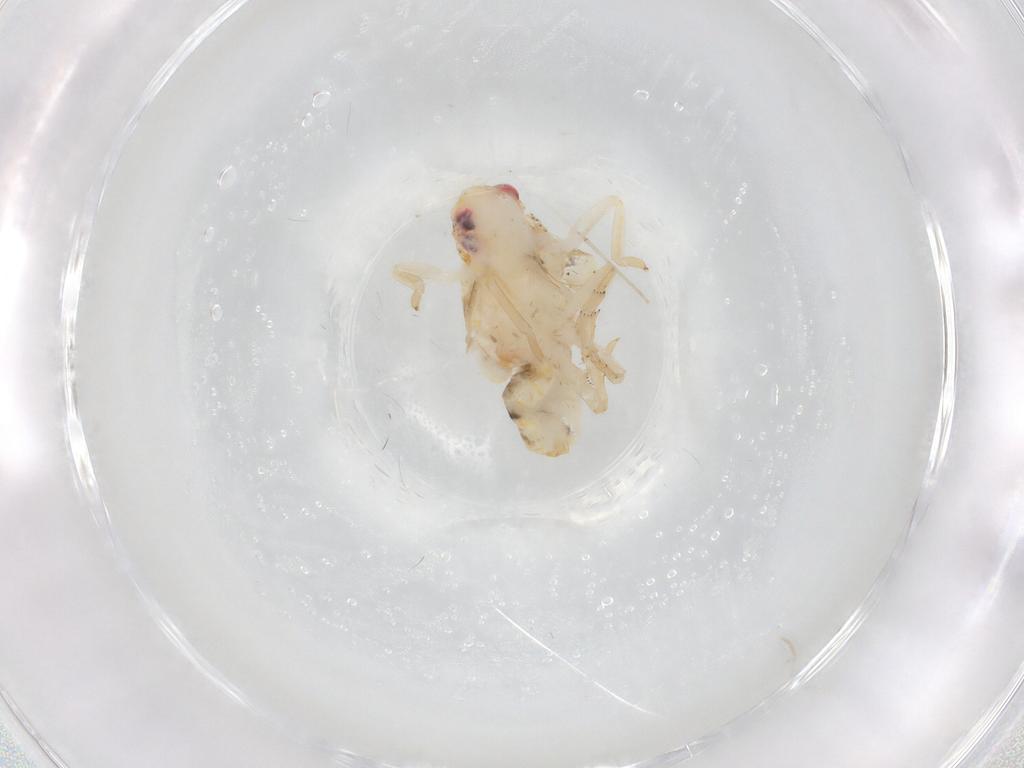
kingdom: Animalia
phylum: Arthropoda
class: Insecta
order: Hemiptera
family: Flatidae
